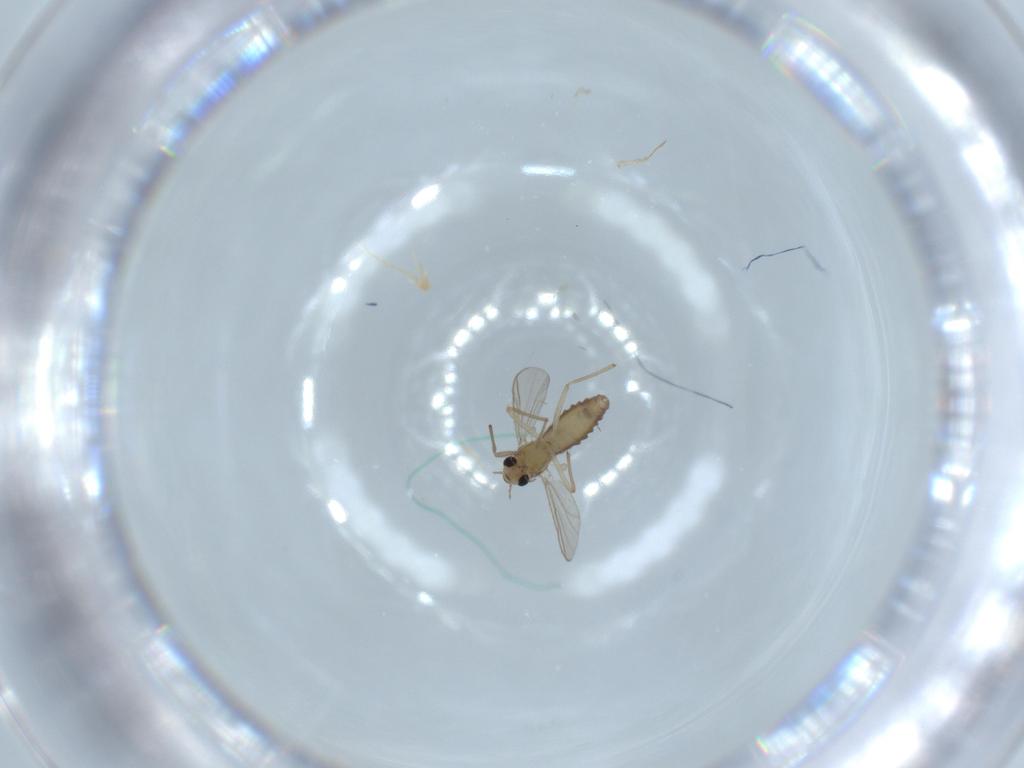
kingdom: Animalia
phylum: Arthropoda
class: Insecta
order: Diptera
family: Chironomidae
